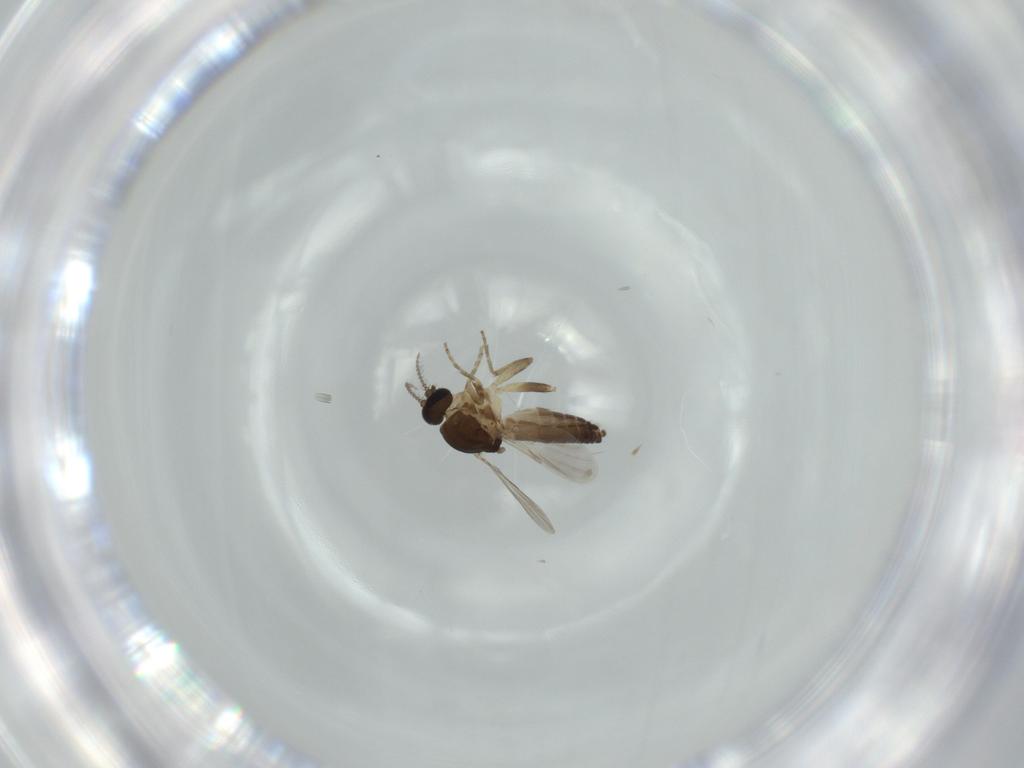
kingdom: Animalia
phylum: Arthropoda
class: Insecta
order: Diptera
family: Ceratopogonidae
